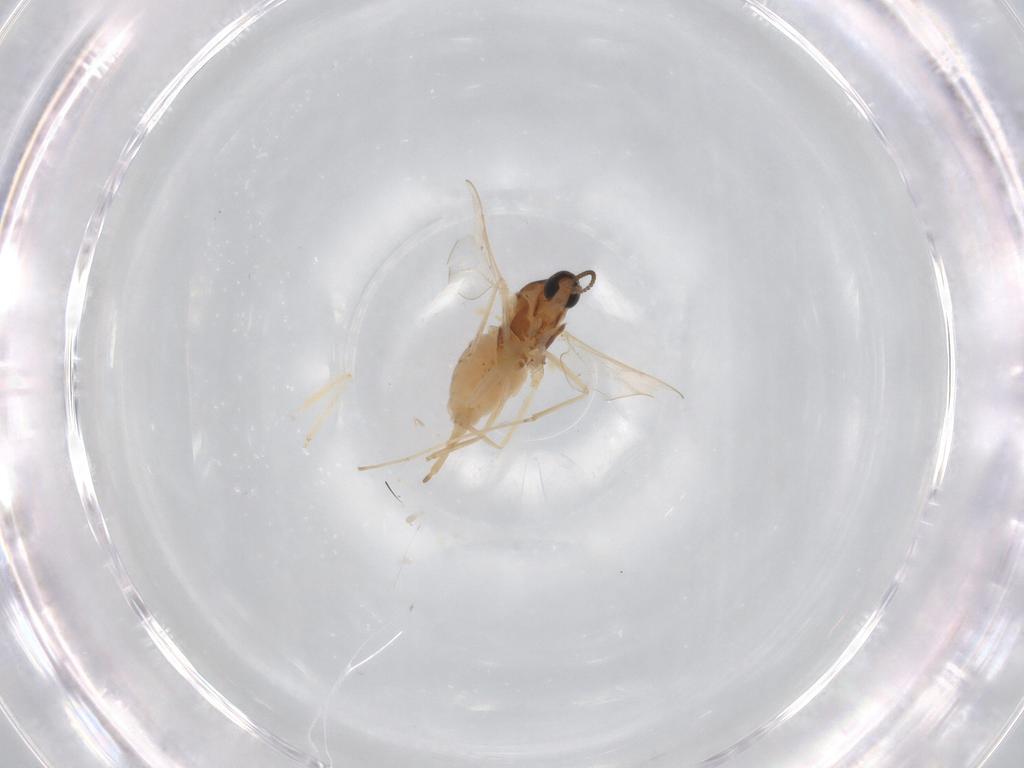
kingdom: Animalia
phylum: Arthropoda
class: Insecta
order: Diptera
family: Cecidomyiidae
